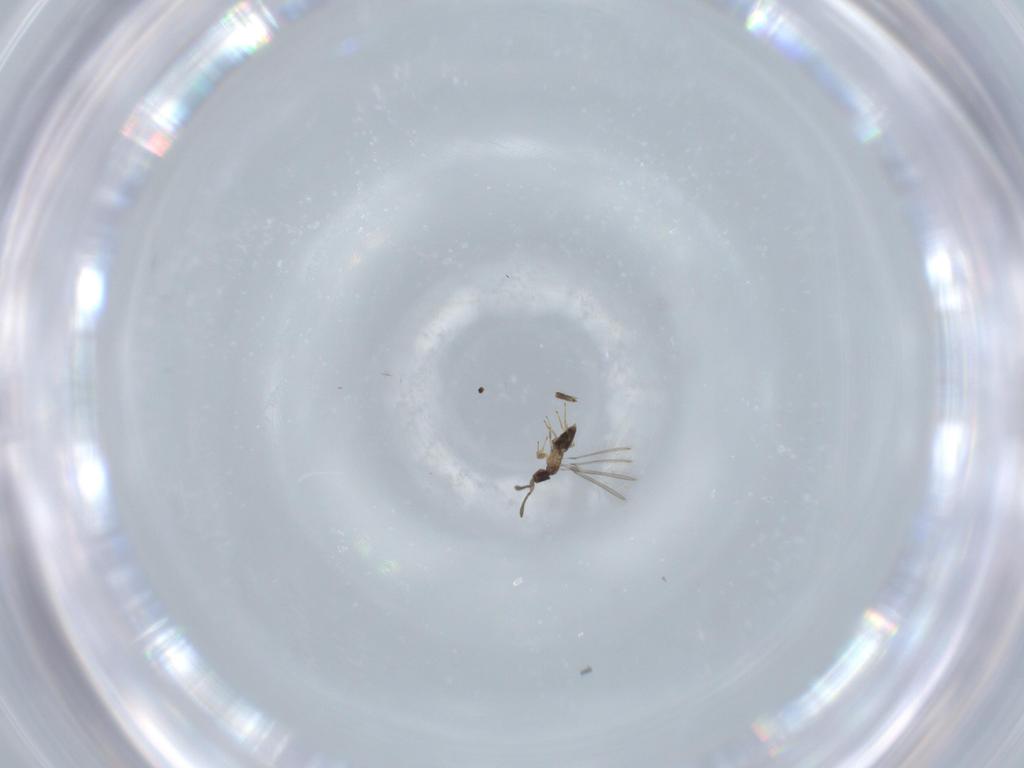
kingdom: Animalia
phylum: Arthropoda
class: Insecta
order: Hymenoptera
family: Mymaridae
